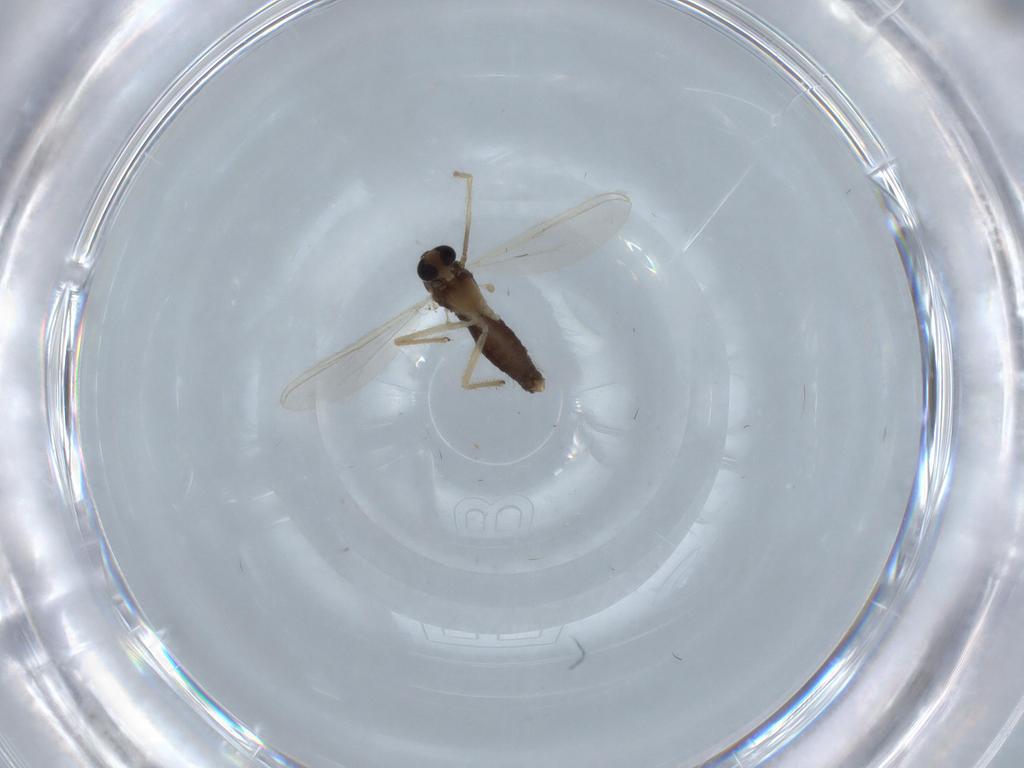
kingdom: Animalia
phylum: Arthropoda
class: Insecta
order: Diptera
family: Chironomidae
